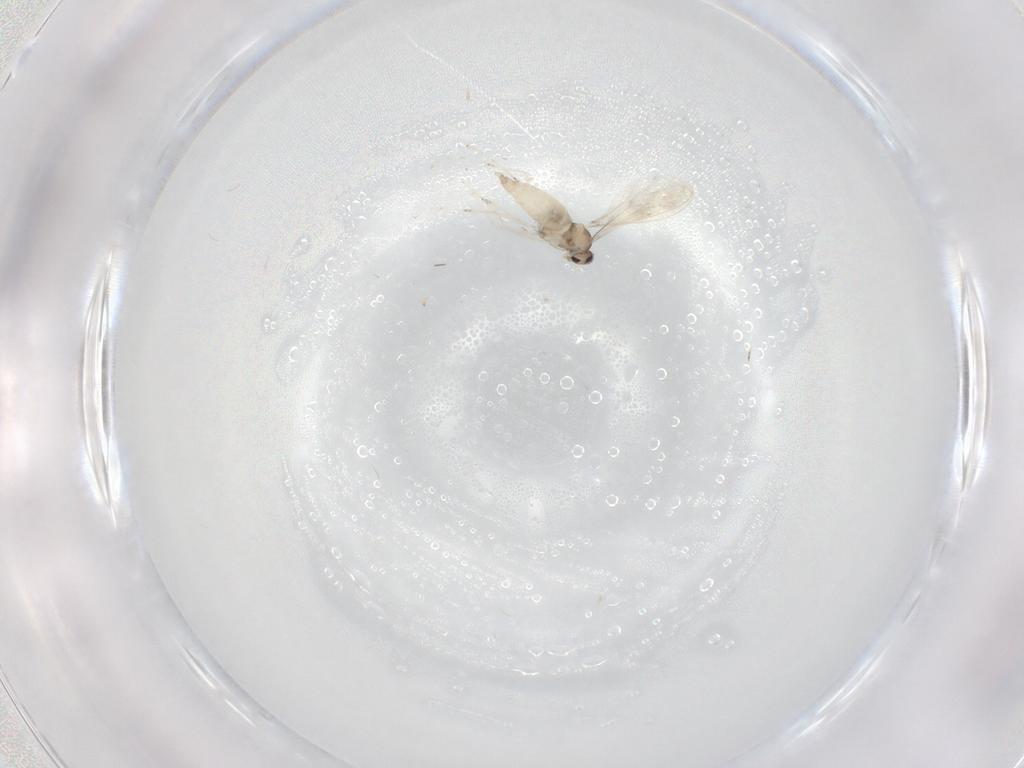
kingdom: Animalia
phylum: Arthropoda
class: Insecta
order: Diptera
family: Cecidomyiidae
